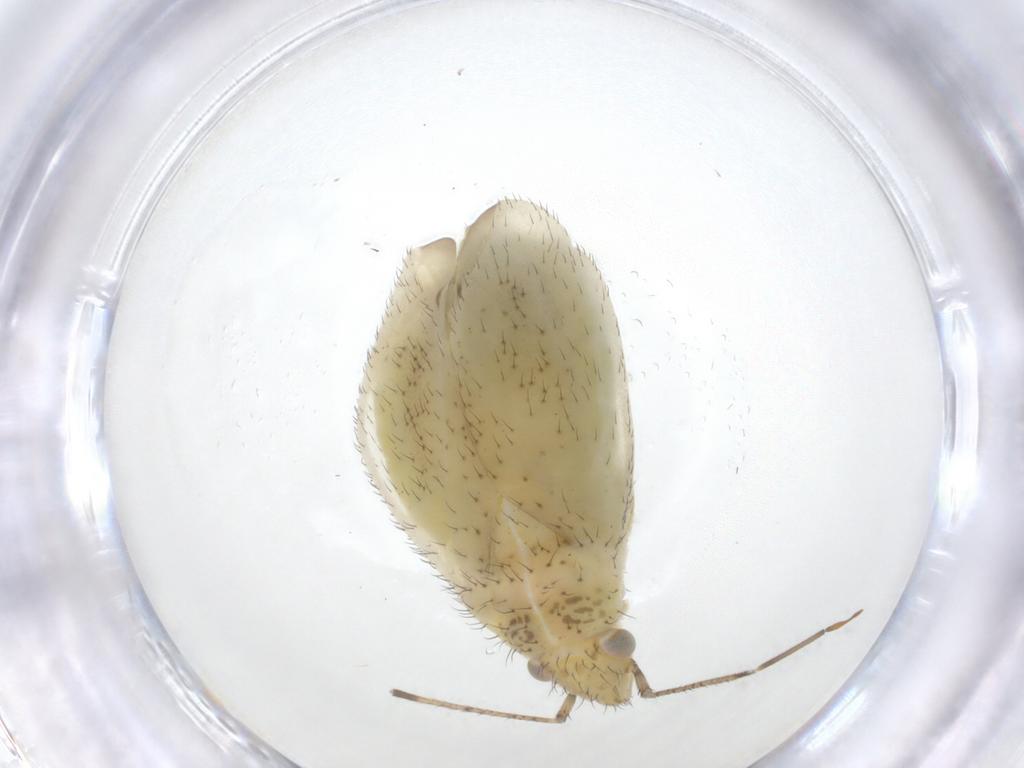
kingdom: Animalia
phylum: Arthropoda
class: Insecta
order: Hemiptera
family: Miridae
